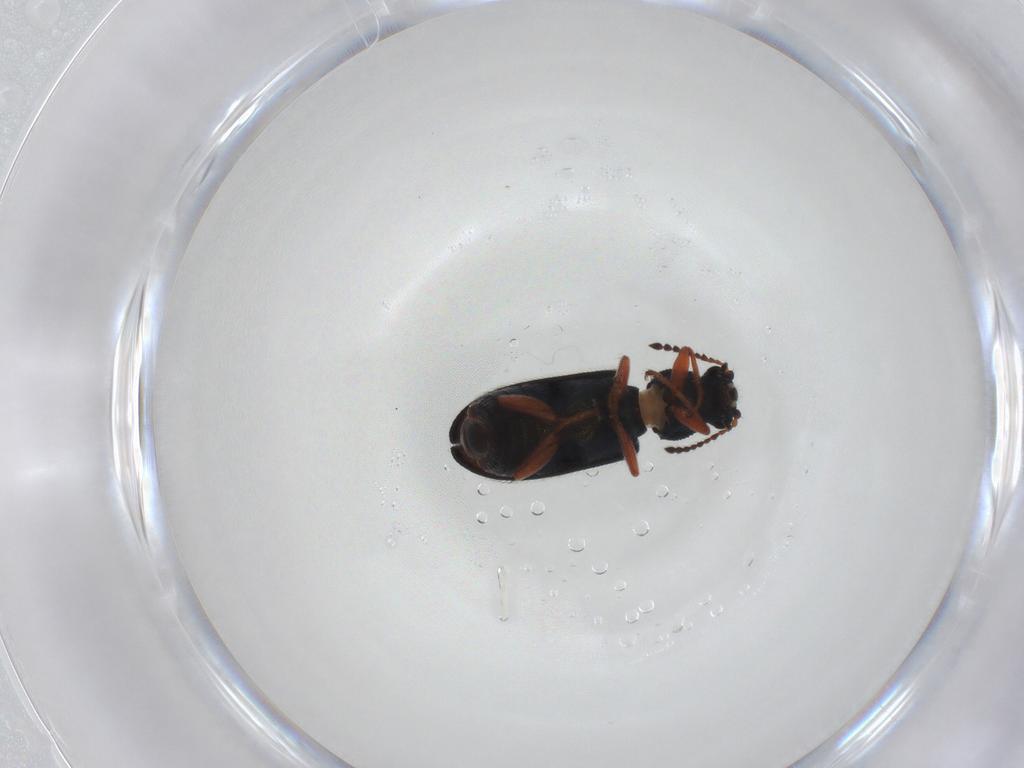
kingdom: Animalia
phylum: Arthropoda
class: Insecta
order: Coleoptera
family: Melyridae
